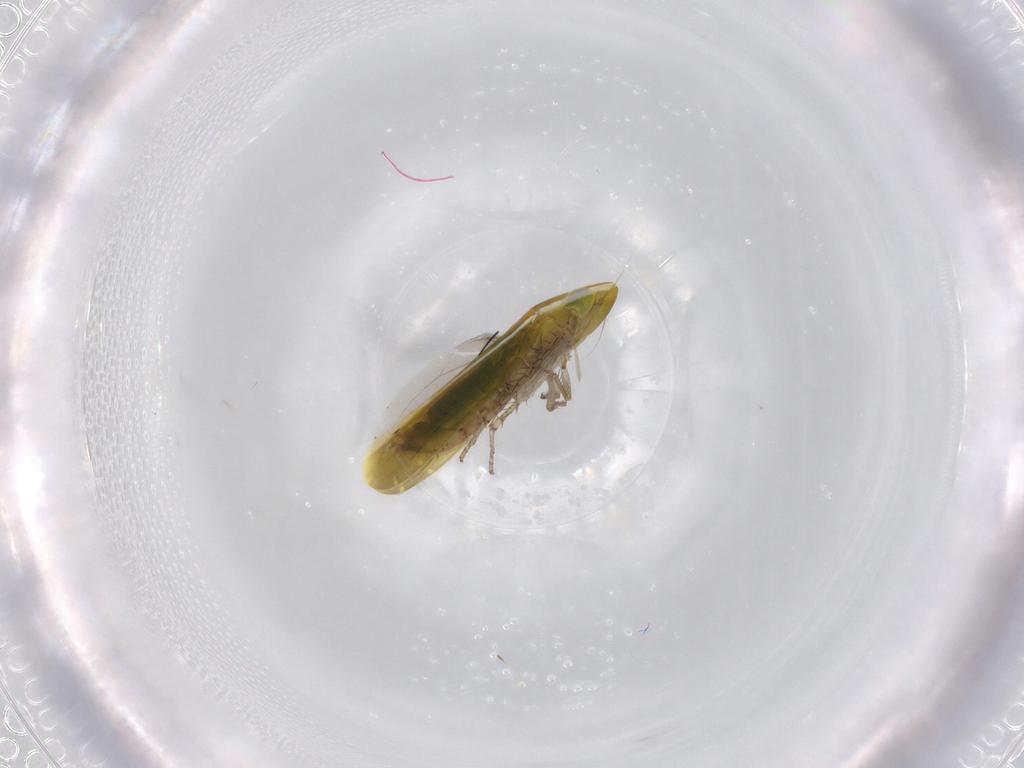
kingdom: Animalia
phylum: Arthropoda
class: Insecta
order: Hemiptera
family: Cicadellidae
